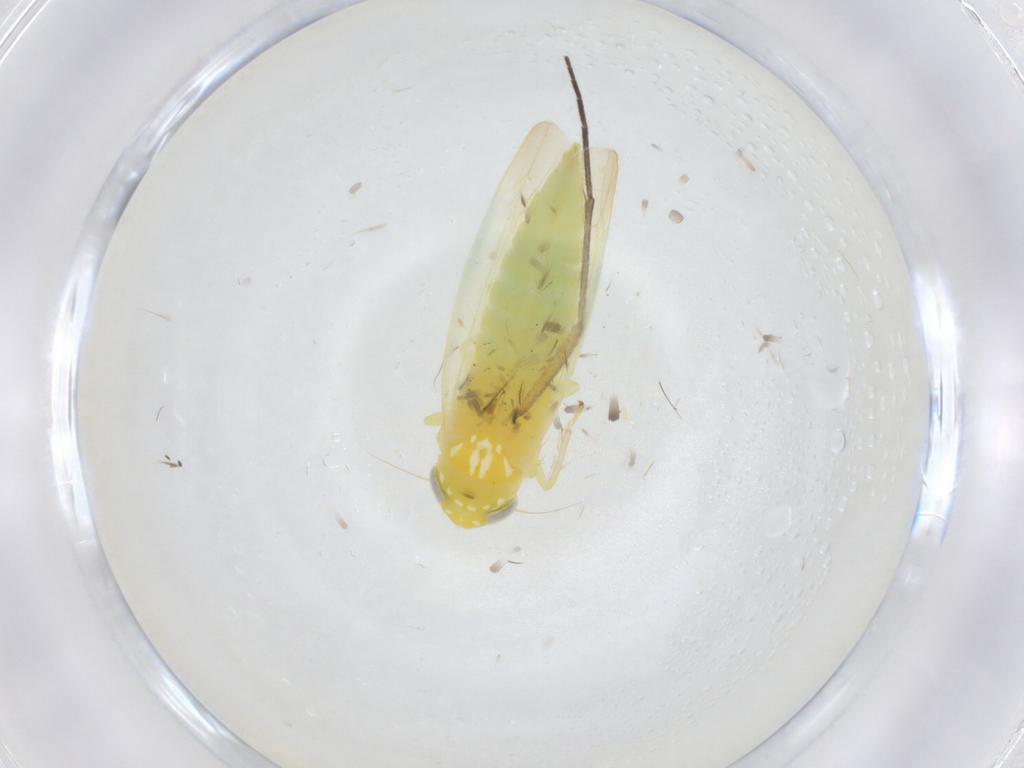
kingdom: Animalia
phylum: Arthropoda
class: Insecta
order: Hemiptera
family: Cicadellidae
